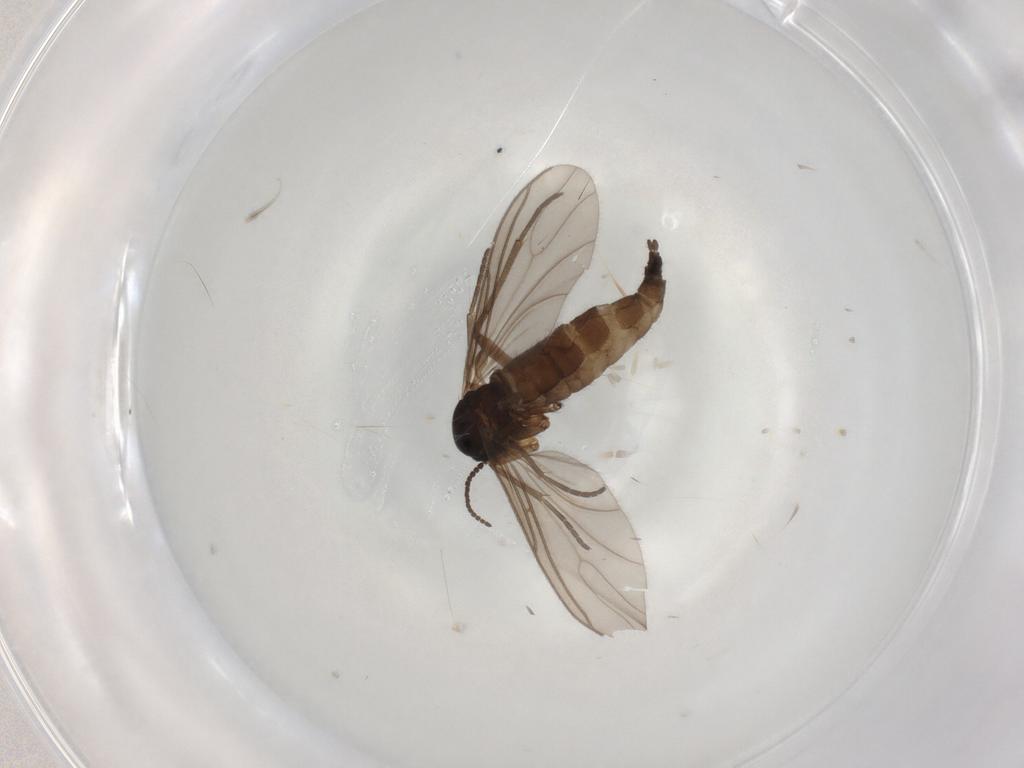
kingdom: Animalia
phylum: Arthropoda
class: Insecta
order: Diptera
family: Sciaridae
